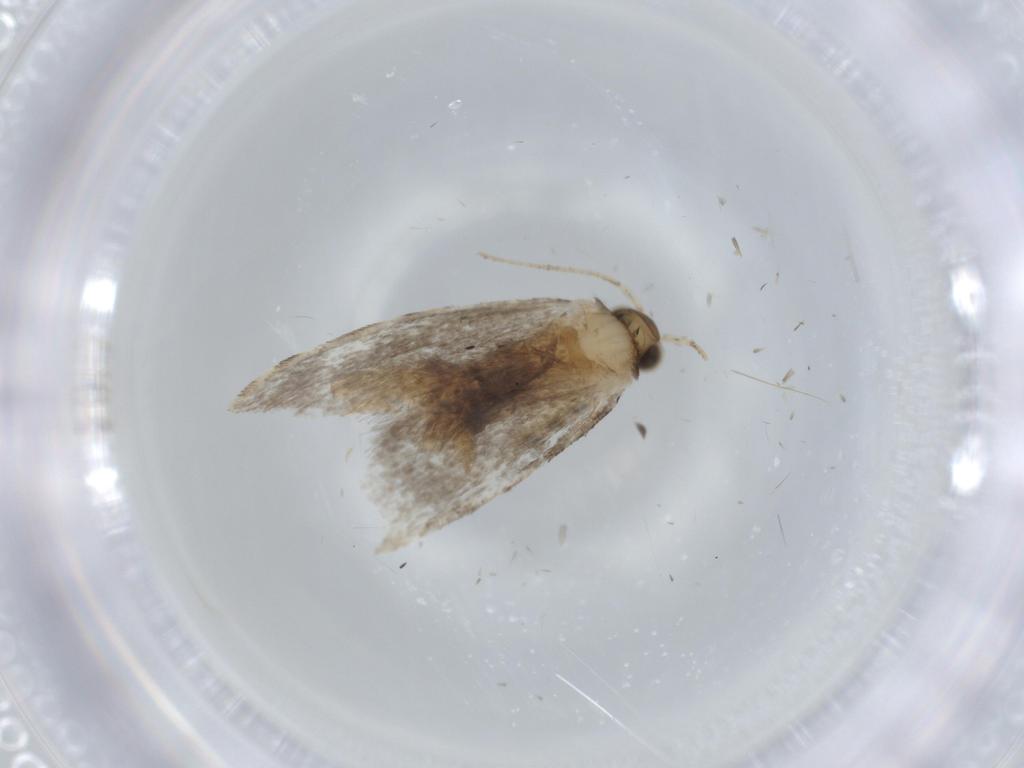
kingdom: Animalia
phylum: Arthropoda
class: Insecta
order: Lepidoptera
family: Tineidae
